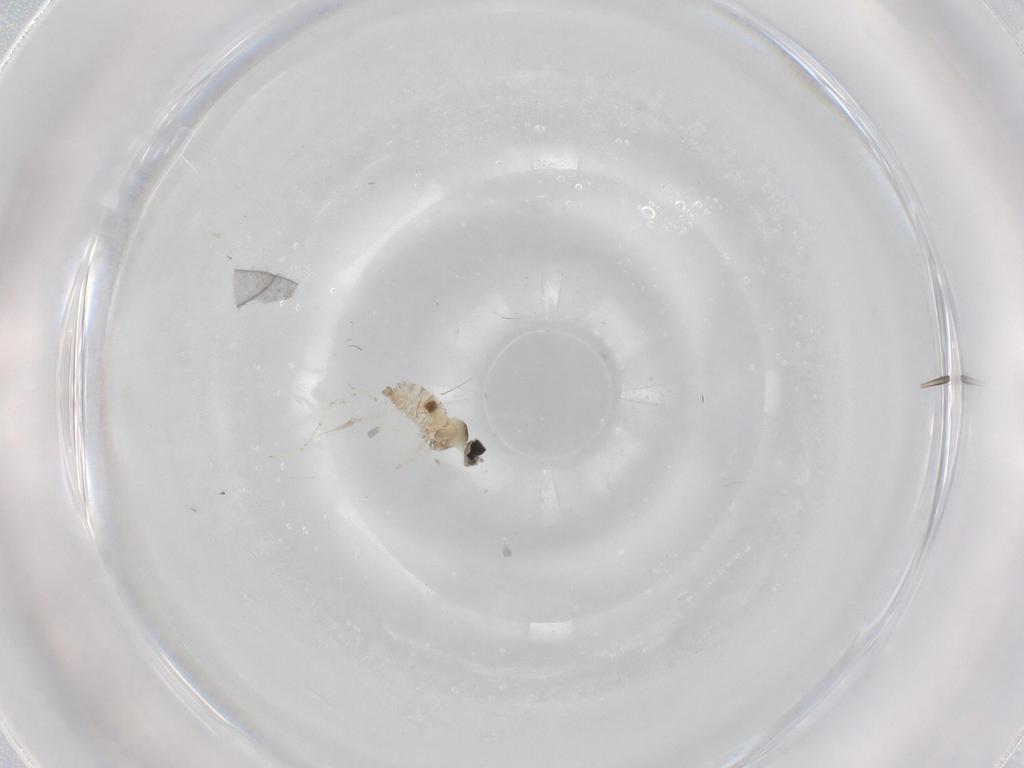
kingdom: Animalia
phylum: Arthropoda
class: Insecta
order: Diptera
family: Cecidomyiidae
